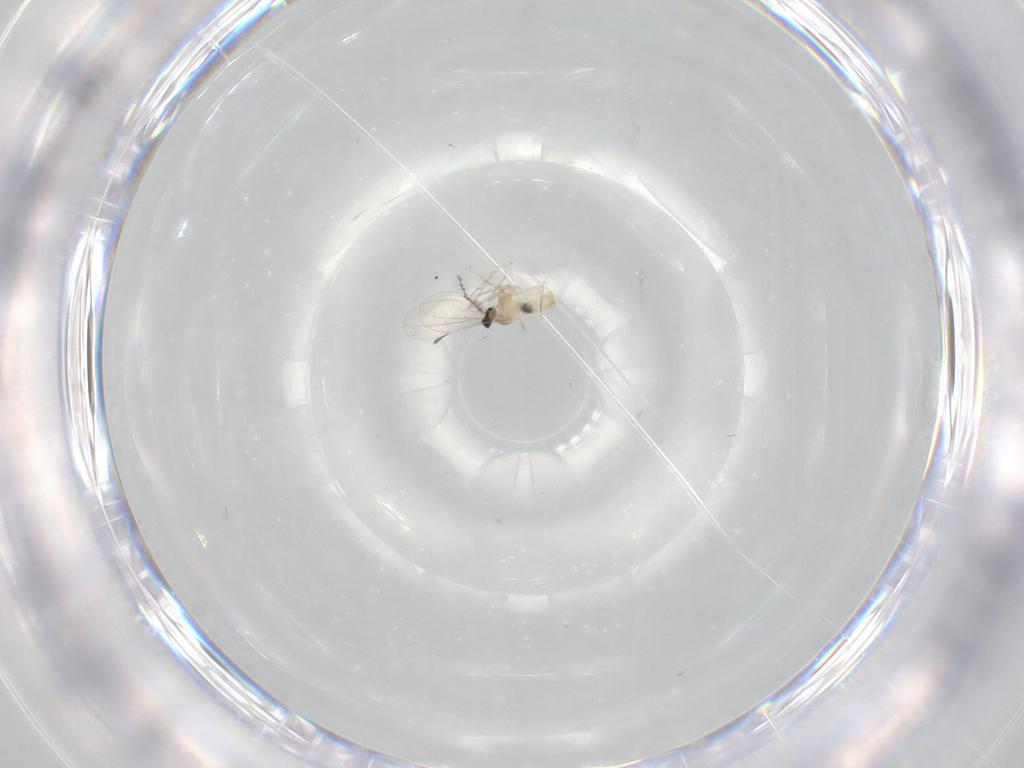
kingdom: Animalia
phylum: Arthropoda
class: Insecta
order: Diptera
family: Cecidomyiidae
